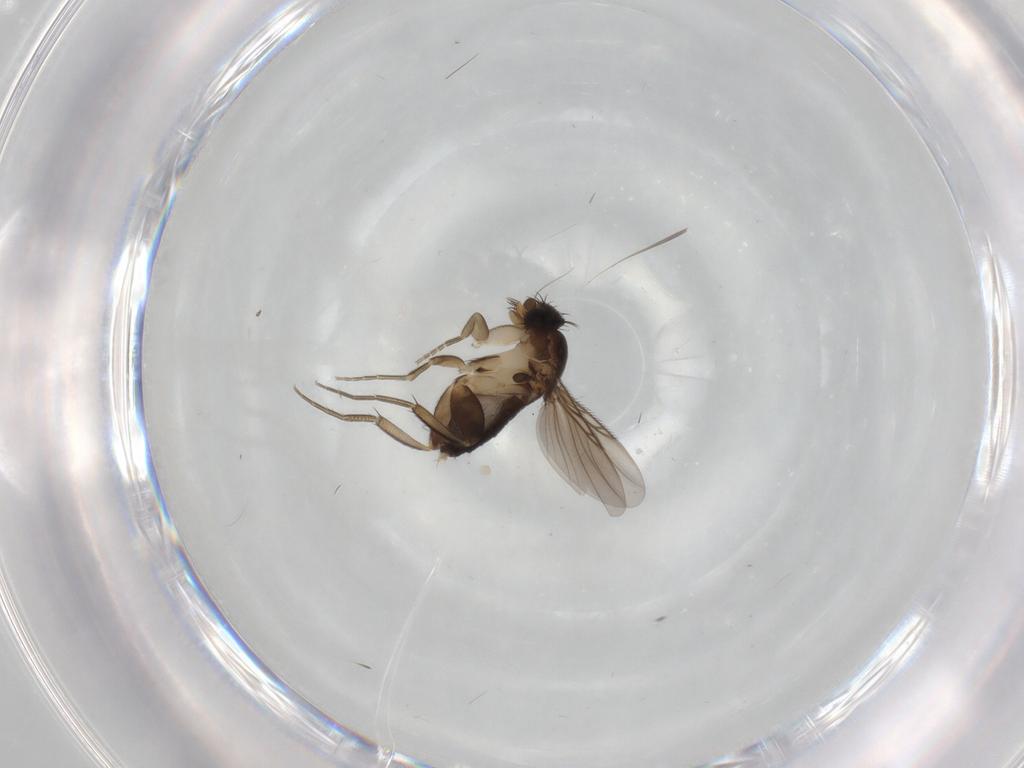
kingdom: Animalia
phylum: Arthropoda
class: Insecta
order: Diptera
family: Phoridae
